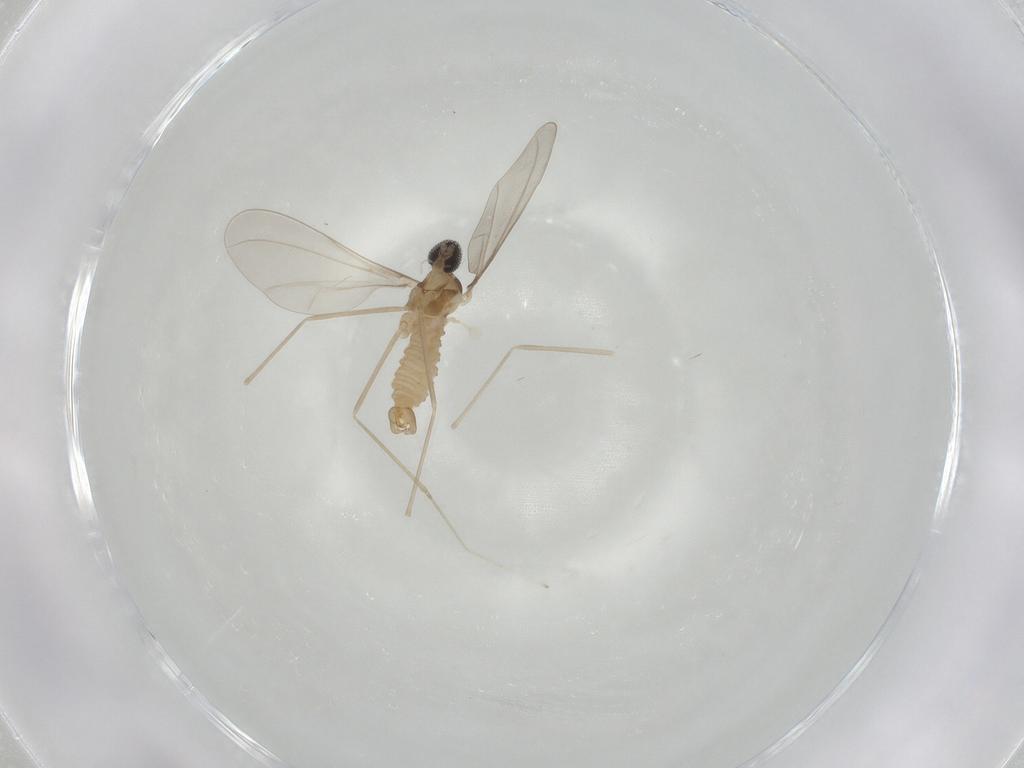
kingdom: Animalia
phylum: Arthropoda
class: Insecta
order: Diptera
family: Cecidomyiidae
